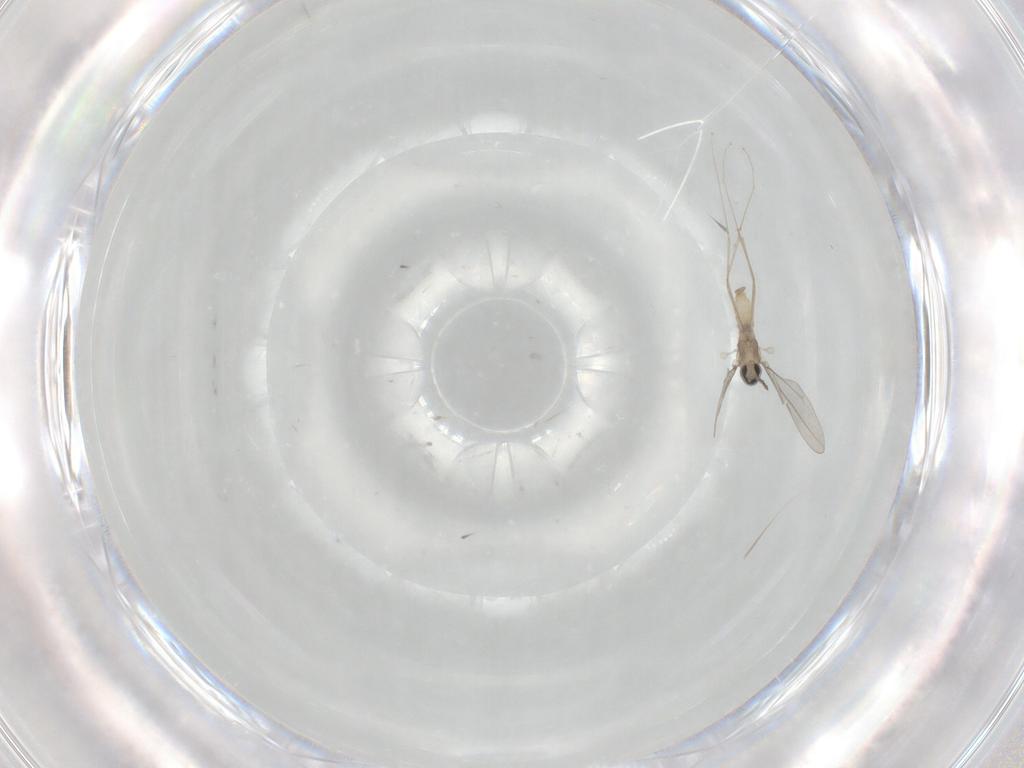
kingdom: Animalia
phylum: Arthropoda
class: Insecta
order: Diptera
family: Cecidomyiidae
